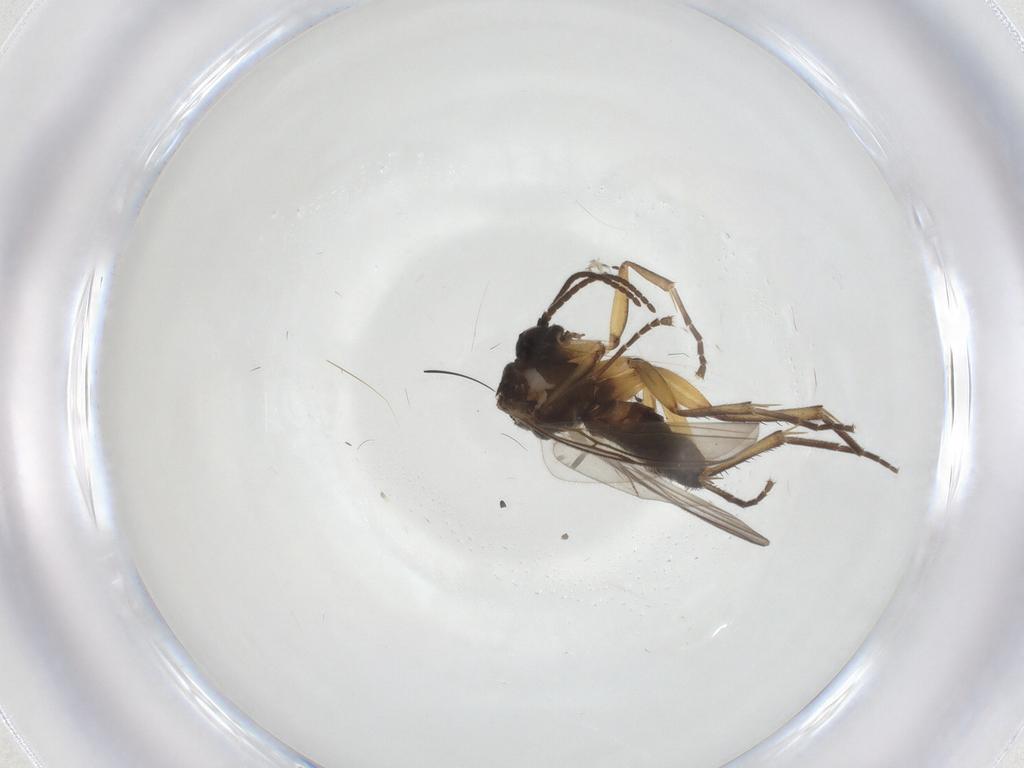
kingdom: Animalia
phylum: Arthropoda
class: Insecta
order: Diptera
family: Mycetophilidae
